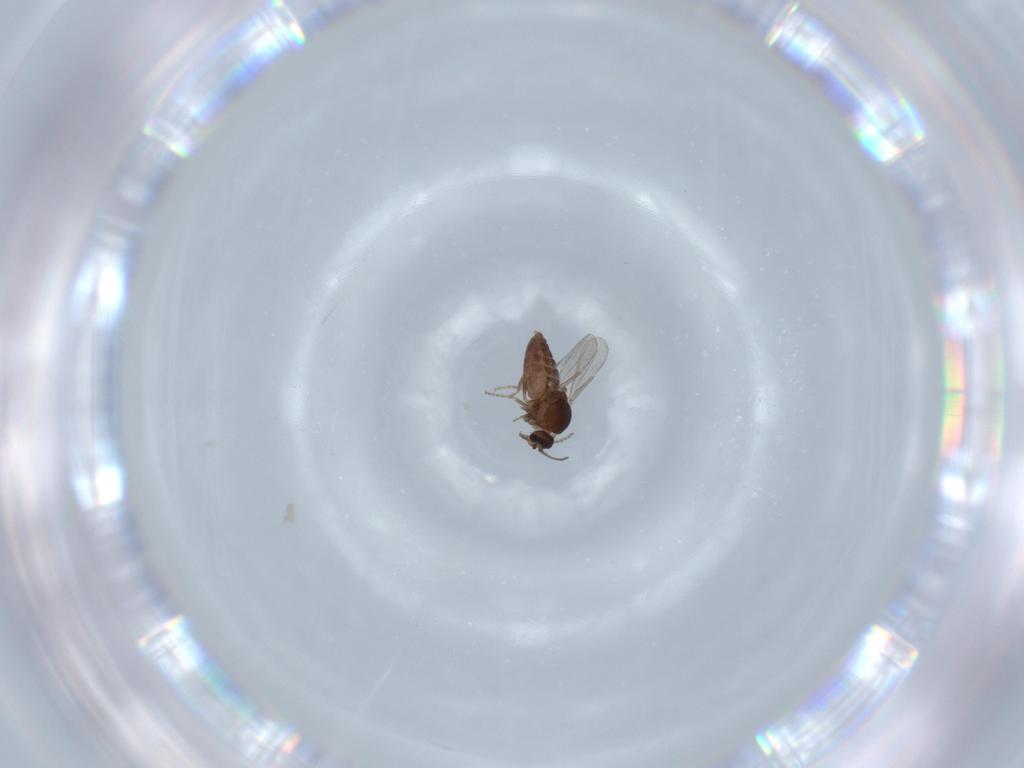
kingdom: Animalia
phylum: Arthropoda
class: Insecta
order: Diptera
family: Ceratopogonidae
